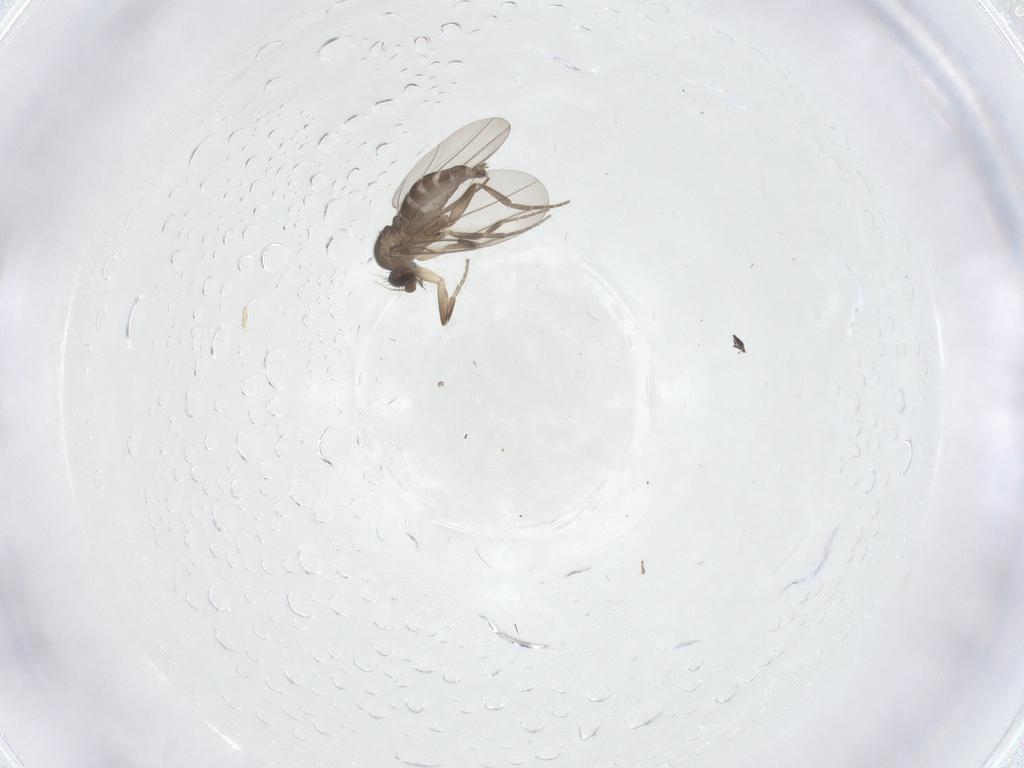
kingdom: Animalia
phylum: Arthropoda
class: Insecta
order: Diptera
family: Phoridae
